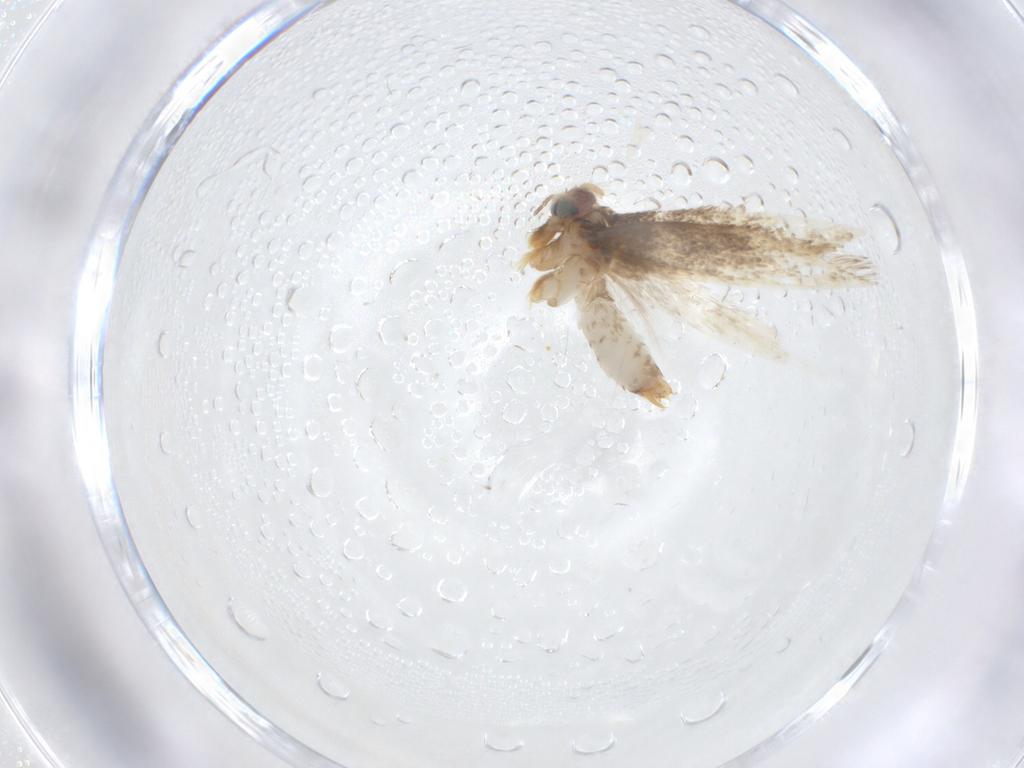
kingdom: Animalia
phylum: Arthropoda
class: Insecta
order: Lepidoptera
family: Nepticulidae
